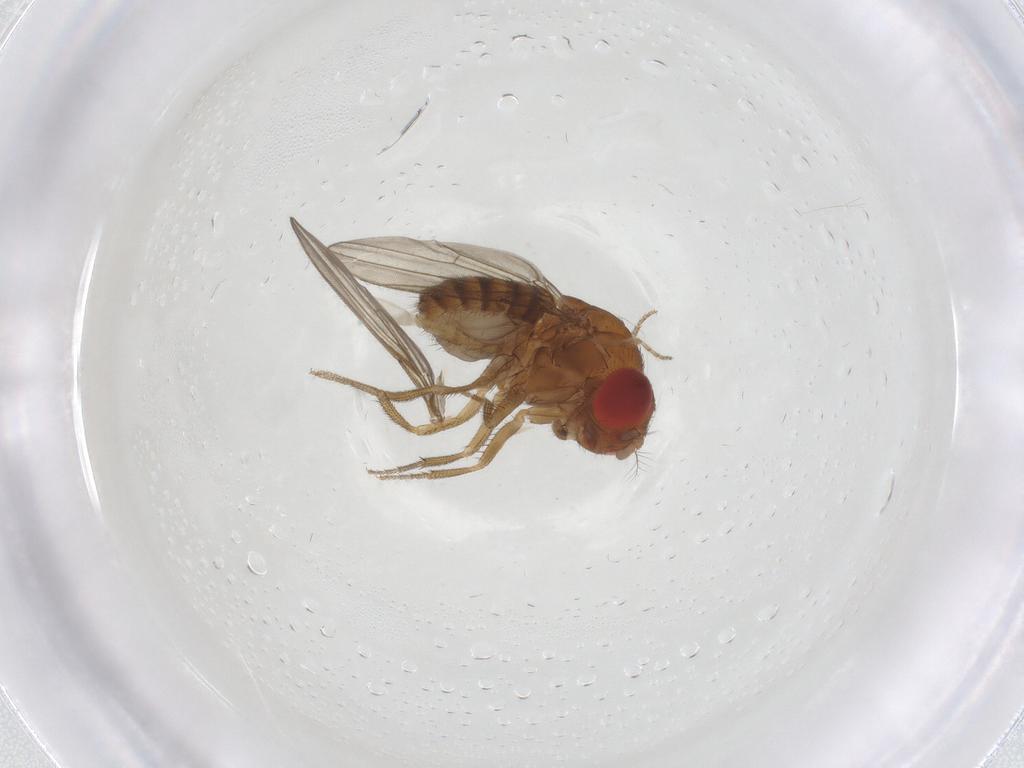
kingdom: Animalia
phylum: Arthropoda
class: Insecta
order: Diptera
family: Drosophilidae
